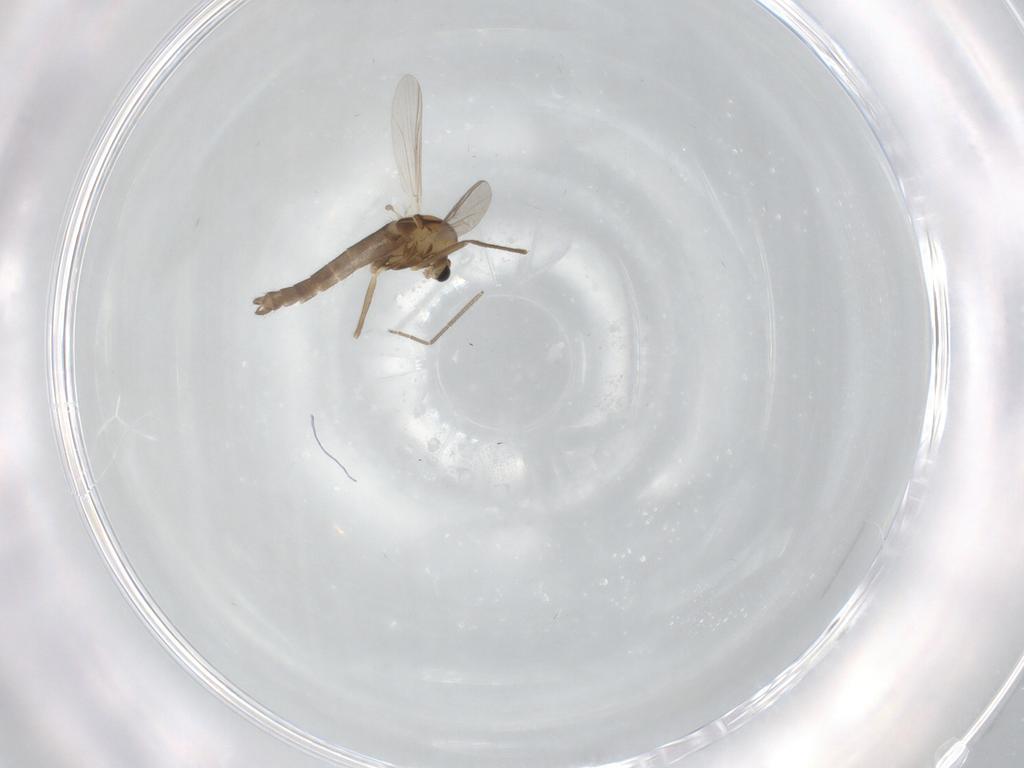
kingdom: Animalia
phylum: Arthropoda
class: Insecta
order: Diptera
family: Chironomidae
